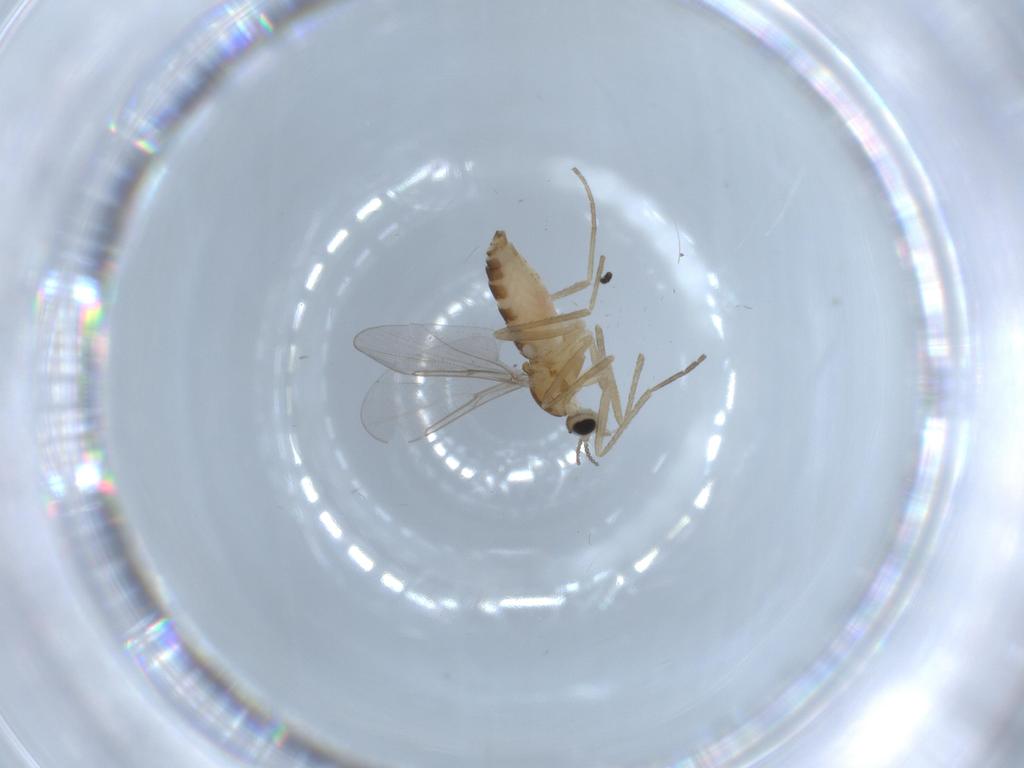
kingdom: Animalia
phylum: Arthropoda
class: Insecta
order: Diptera
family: Cecidomyiidae
